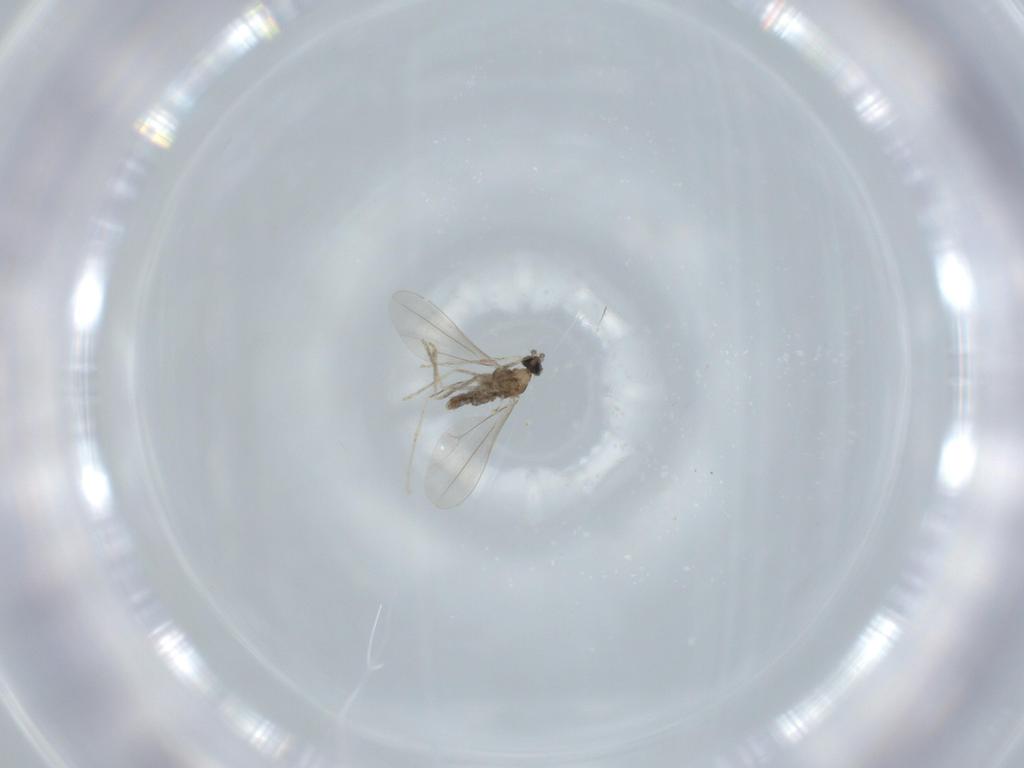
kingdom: Animalia
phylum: Arthropoda
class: Insecta
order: Diptera
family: Cecidomyiidae
